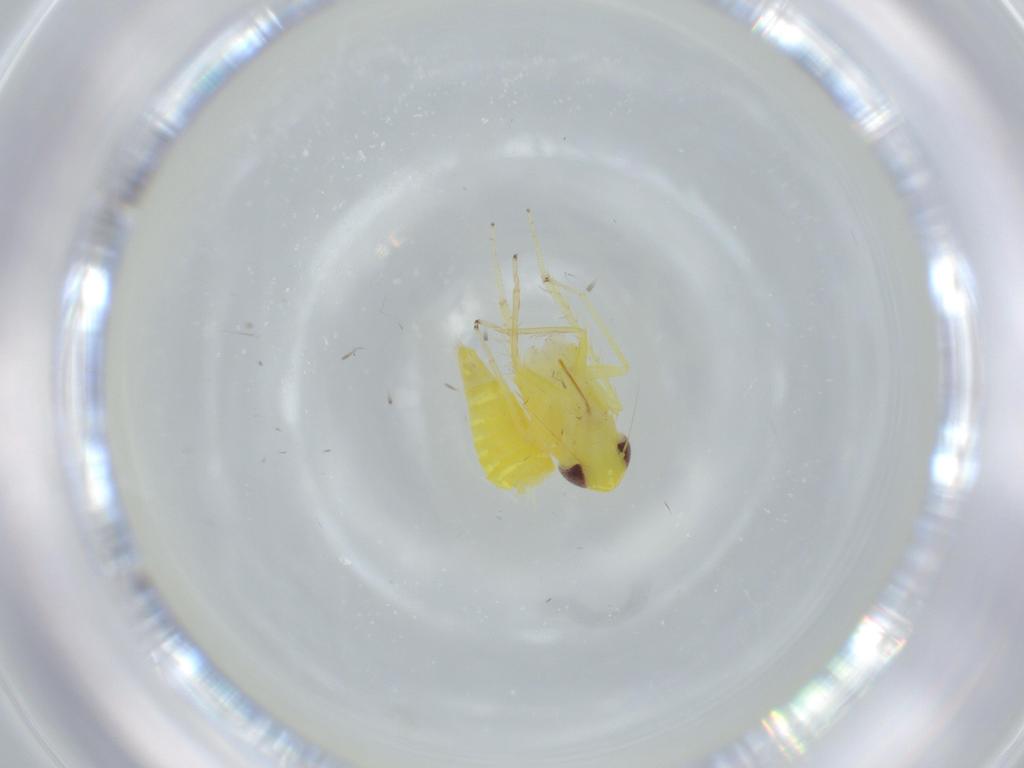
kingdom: Animalia
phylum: Arthropoda
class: Insecta
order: Hemiptera
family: Cicadellidae
